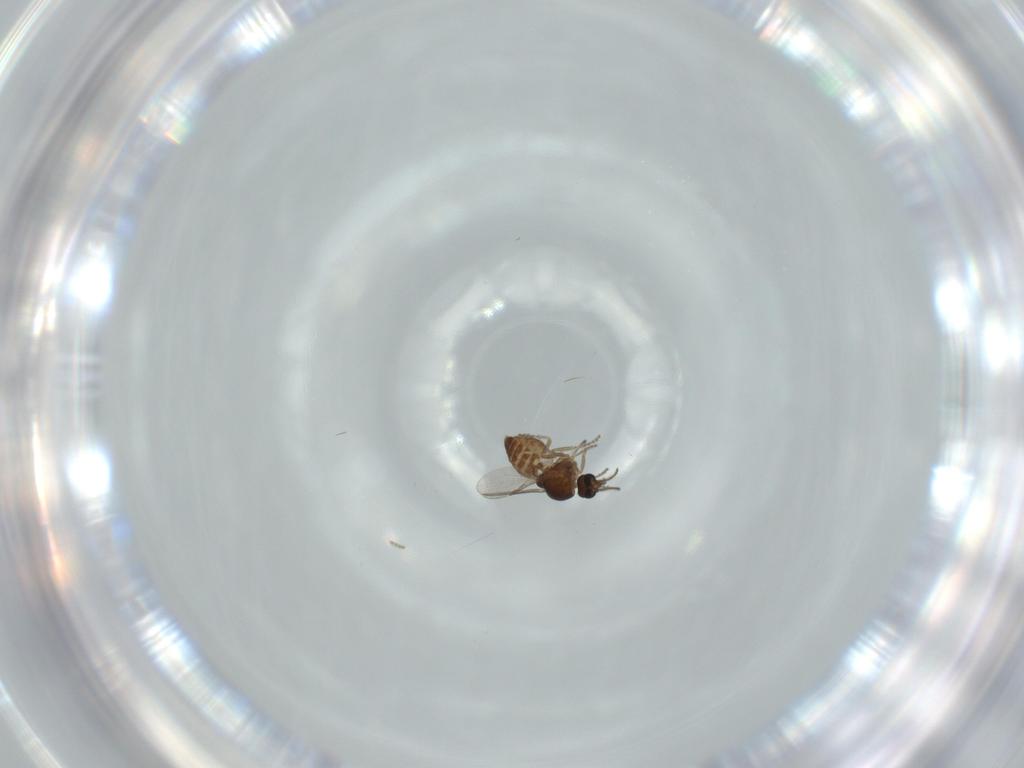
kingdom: Animalia
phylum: Arthropoda
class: Insecta
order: Diptera
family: Ceratopogonidae
